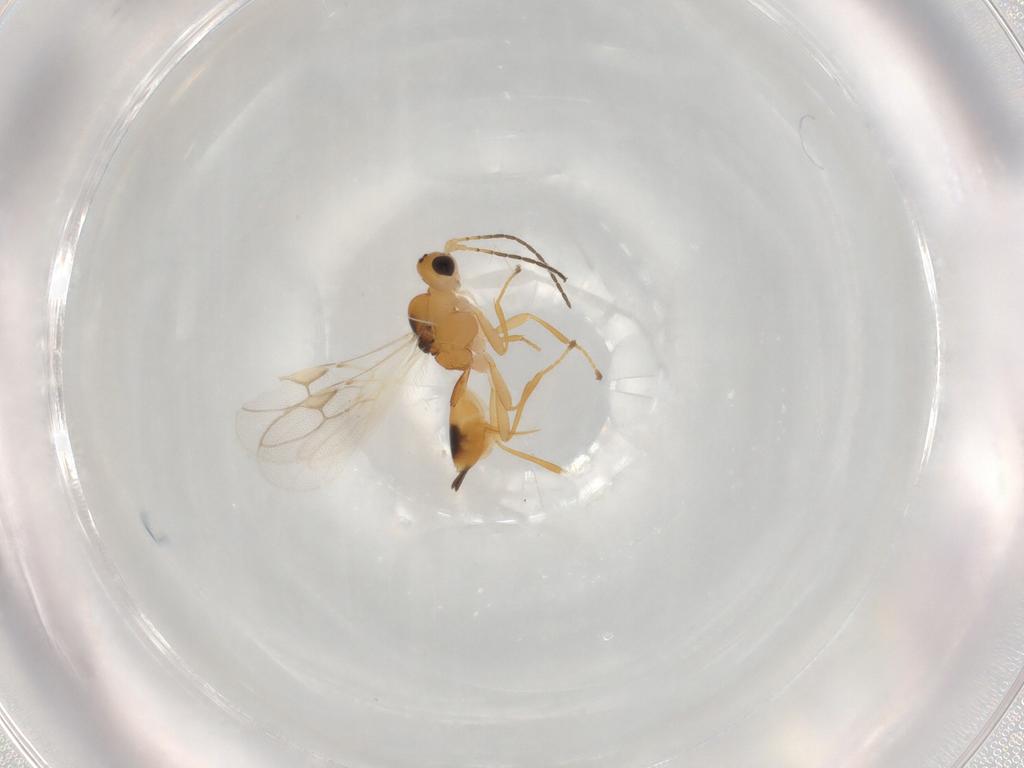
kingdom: Animalia
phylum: Arthropoda
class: Insecta
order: Hymenoptera
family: Braconidae
